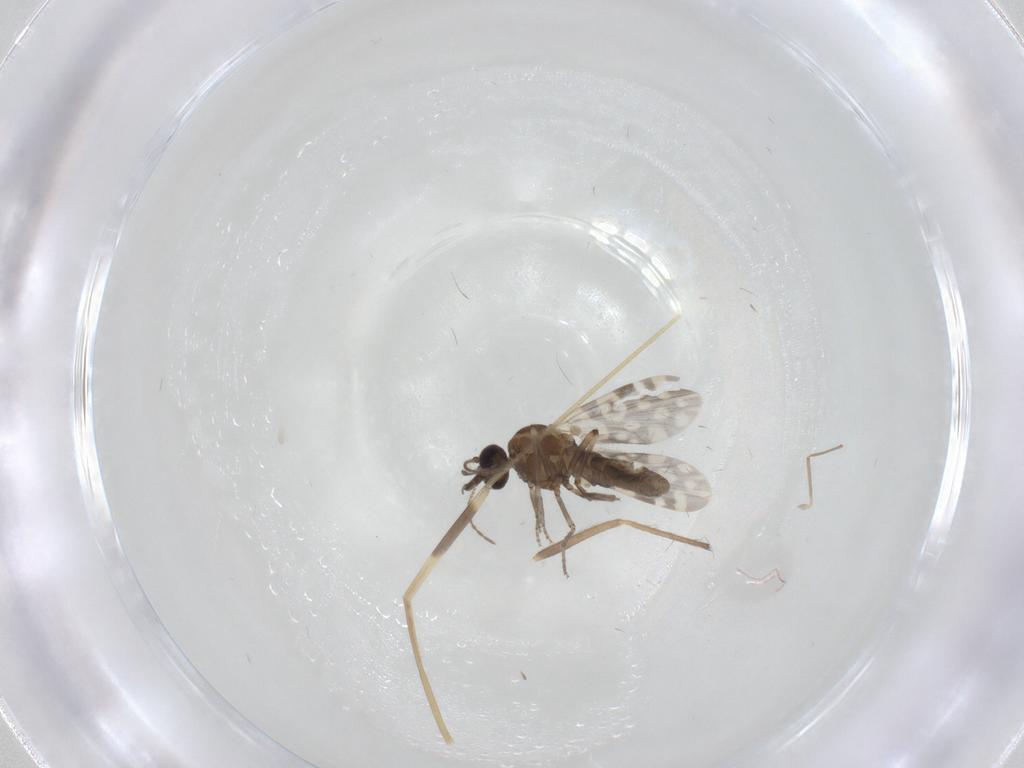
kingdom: Animalia
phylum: Arthropoda
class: Insecta
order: Diptera
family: Limoniidae
